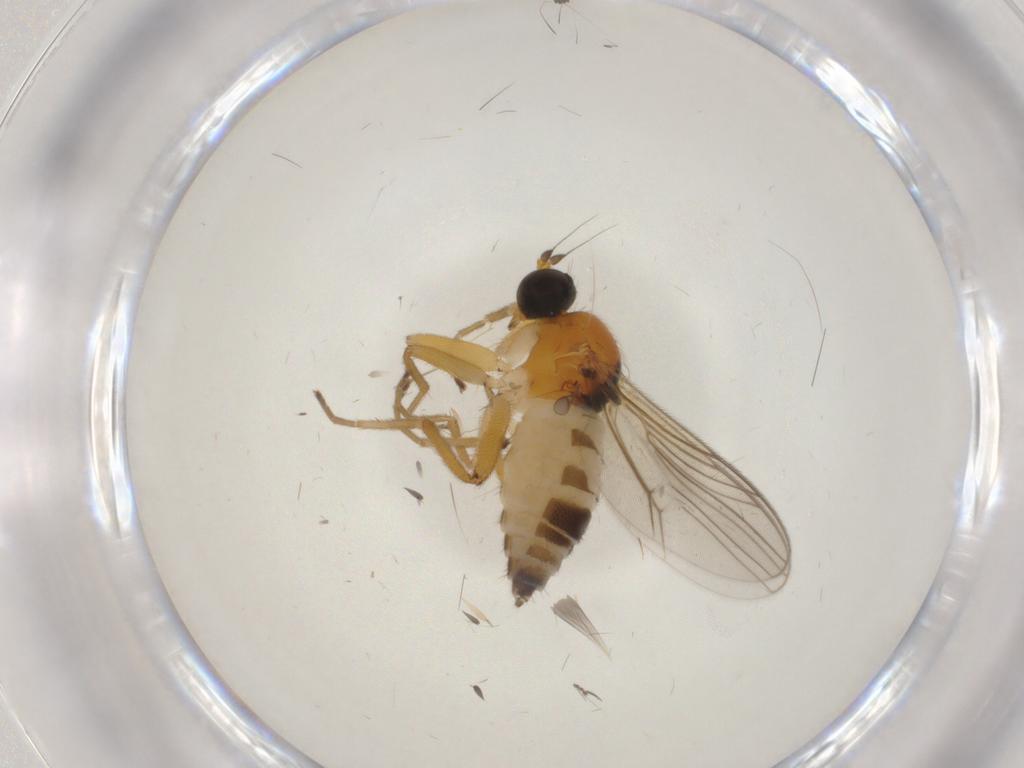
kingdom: Animalia
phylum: Arthropoda
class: Insecta
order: Diptera
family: Hybotidae
